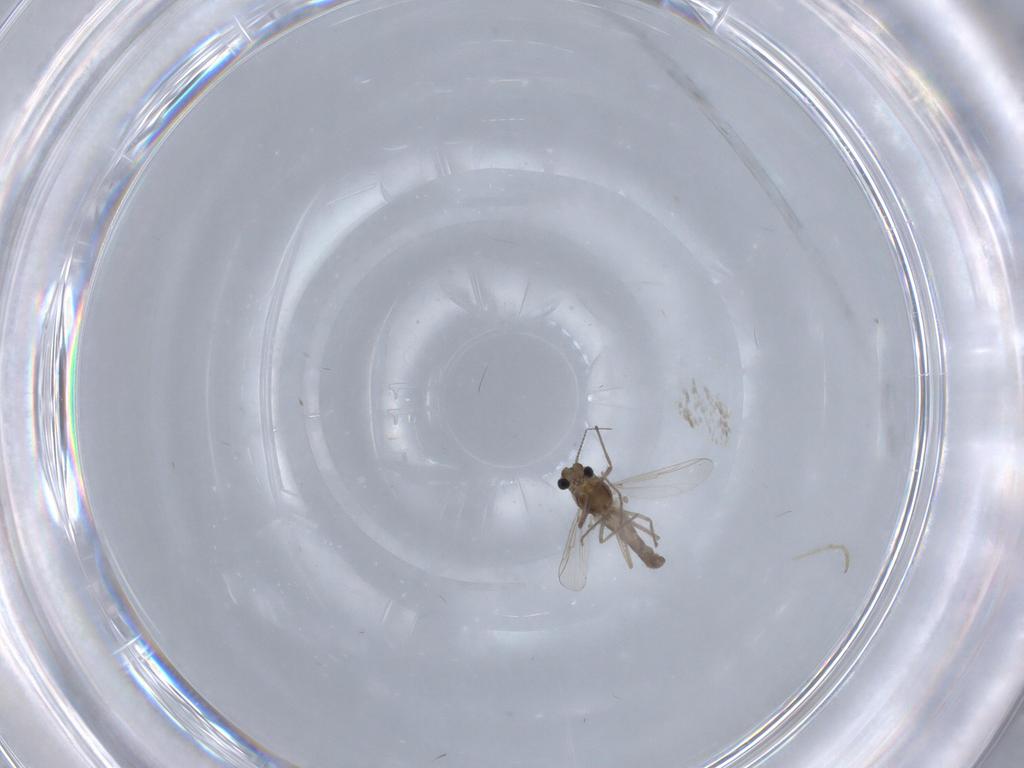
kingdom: Animalia
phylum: Arthropoda
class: Insecta
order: Diptera
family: Chironomidae
